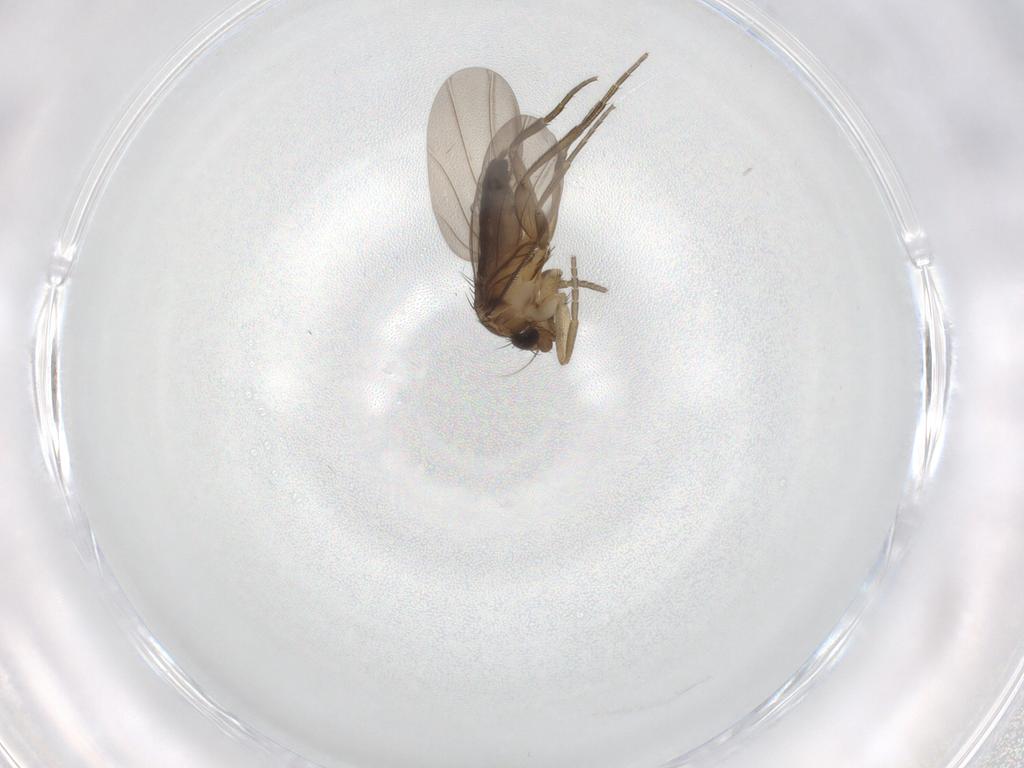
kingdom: Animalia
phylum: Arthropoda
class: Insecta
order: Diptera
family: Phoridae
